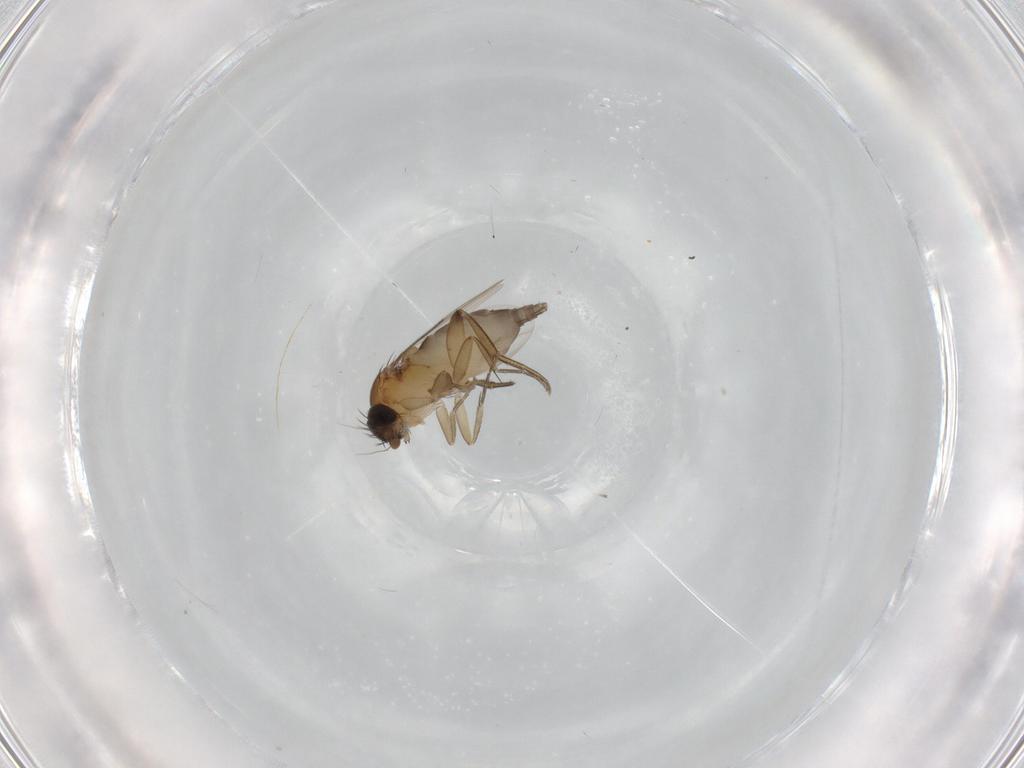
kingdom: Animalia
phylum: Arthropoda
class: Insecta
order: Diptera
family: Phoridae
